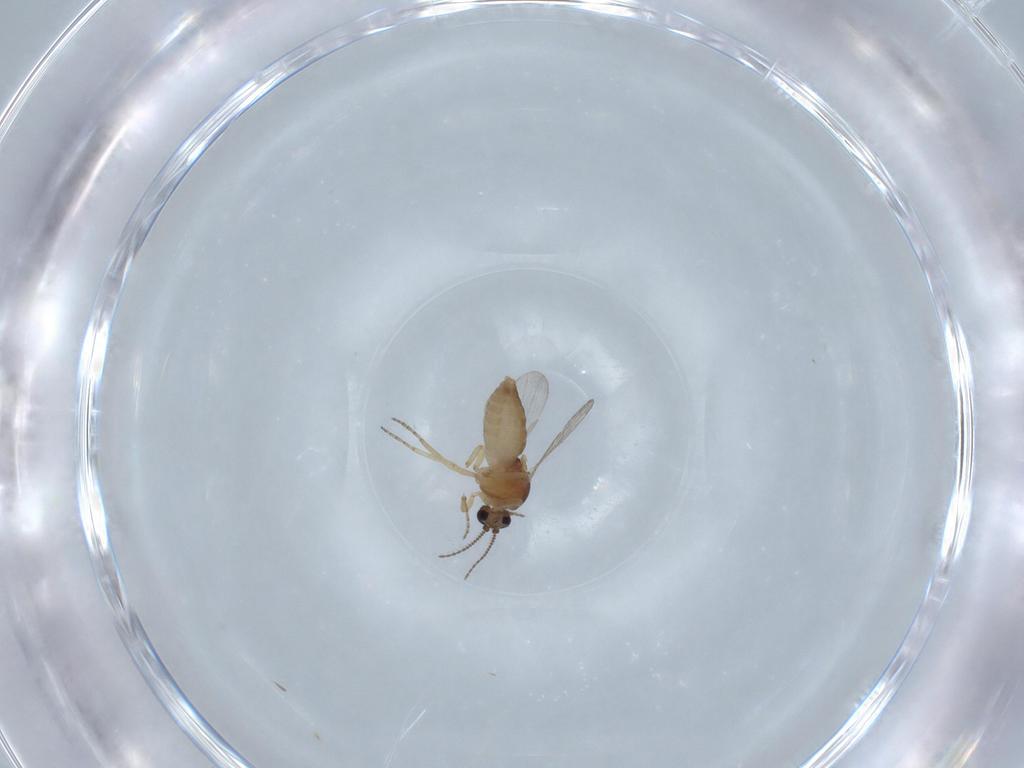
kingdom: Animalia
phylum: Arthropoda
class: Insecta
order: Diptera
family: Ceratopogonidae
